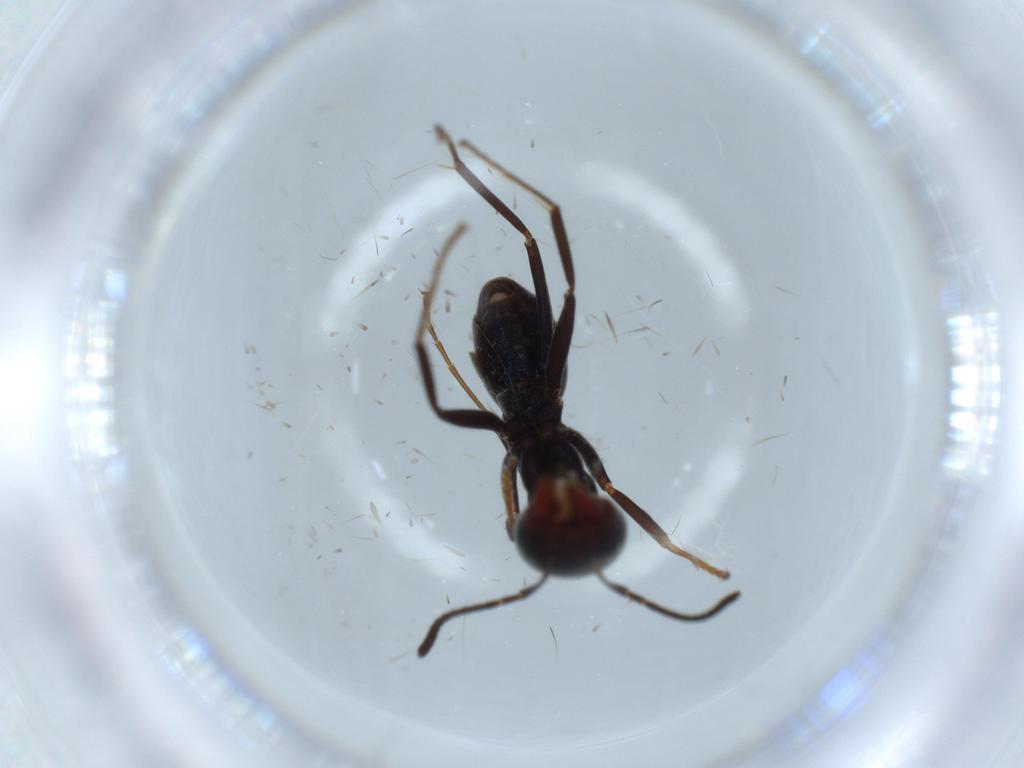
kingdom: Animalia
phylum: Arthropoda
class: Insecta
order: Hymenoptera
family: Formicidae
